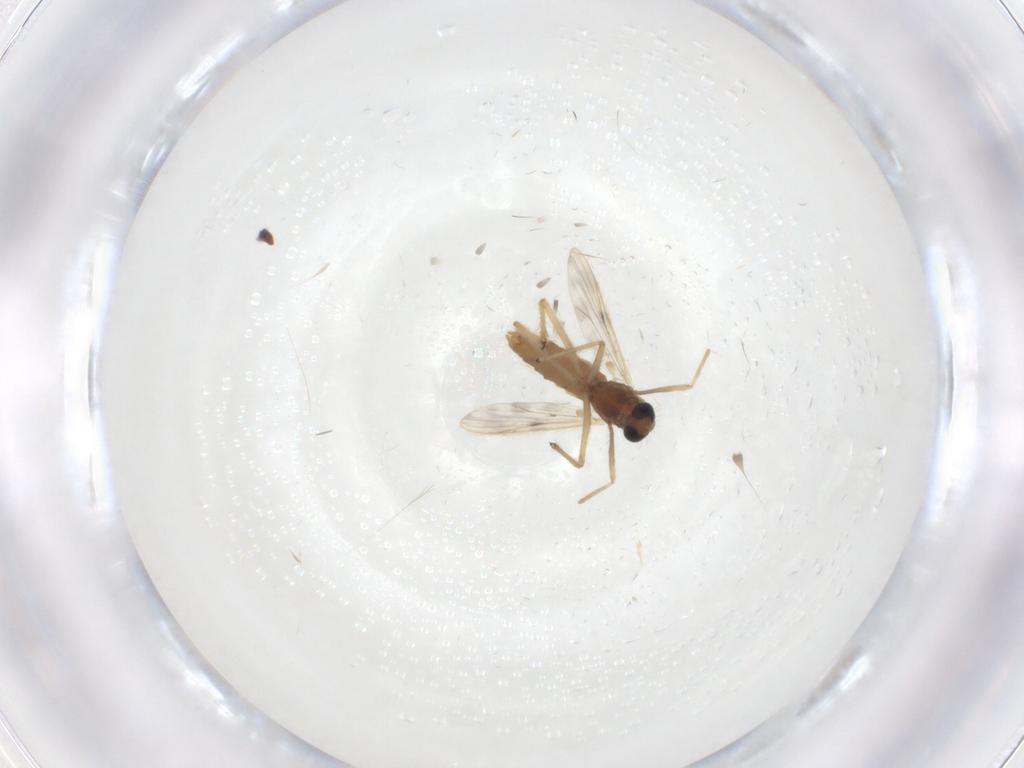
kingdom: Animalia
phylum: Arthropoda
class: Insecta
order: Diptera
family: Chironomidae
